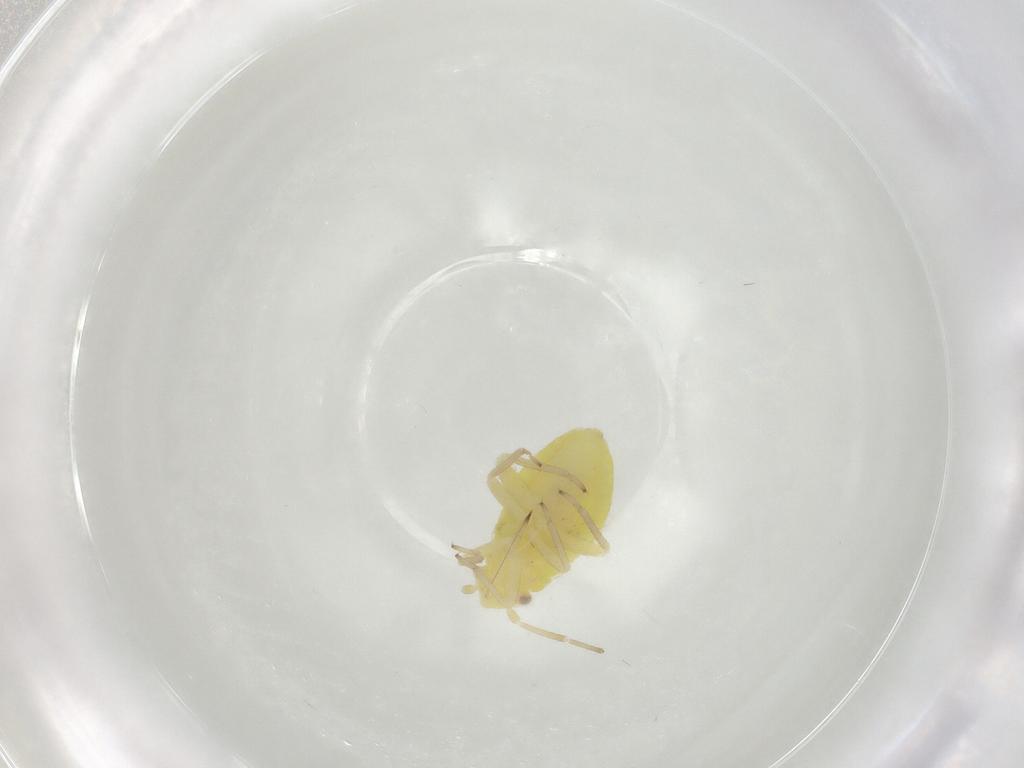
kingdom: Animalia
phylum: Arthropoda
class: Insecta
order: Hemiptera
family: Miridae
